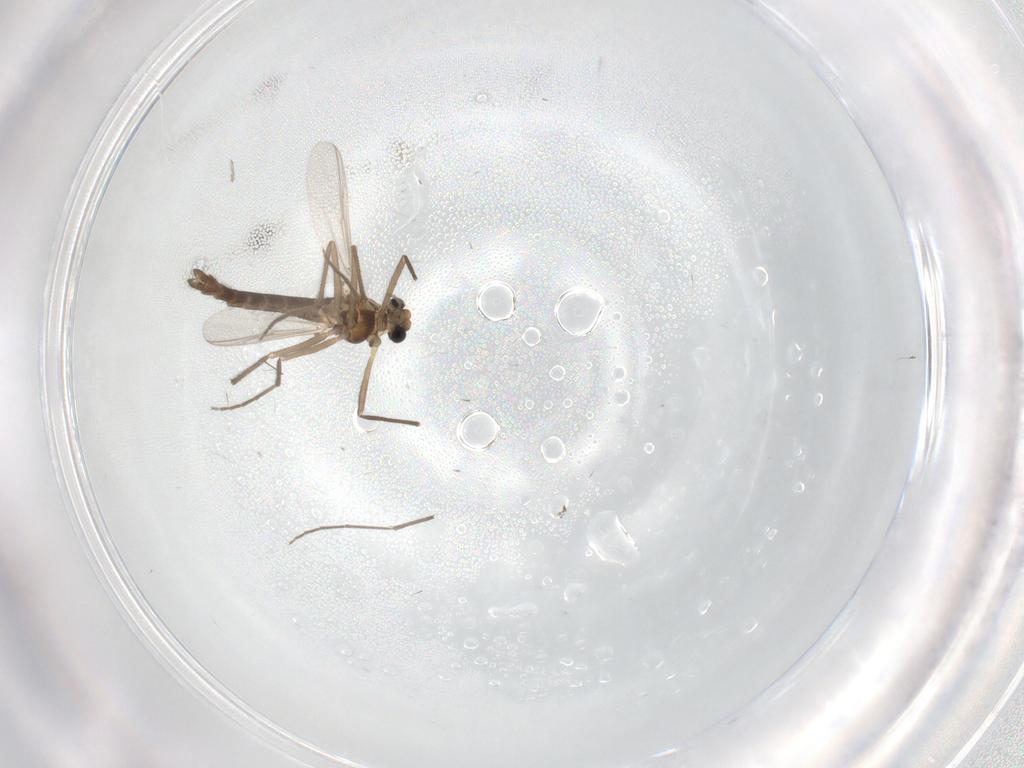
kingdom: Animalia
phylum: Arthropoda
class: Insecta
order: Diptera
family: Chironomidae
